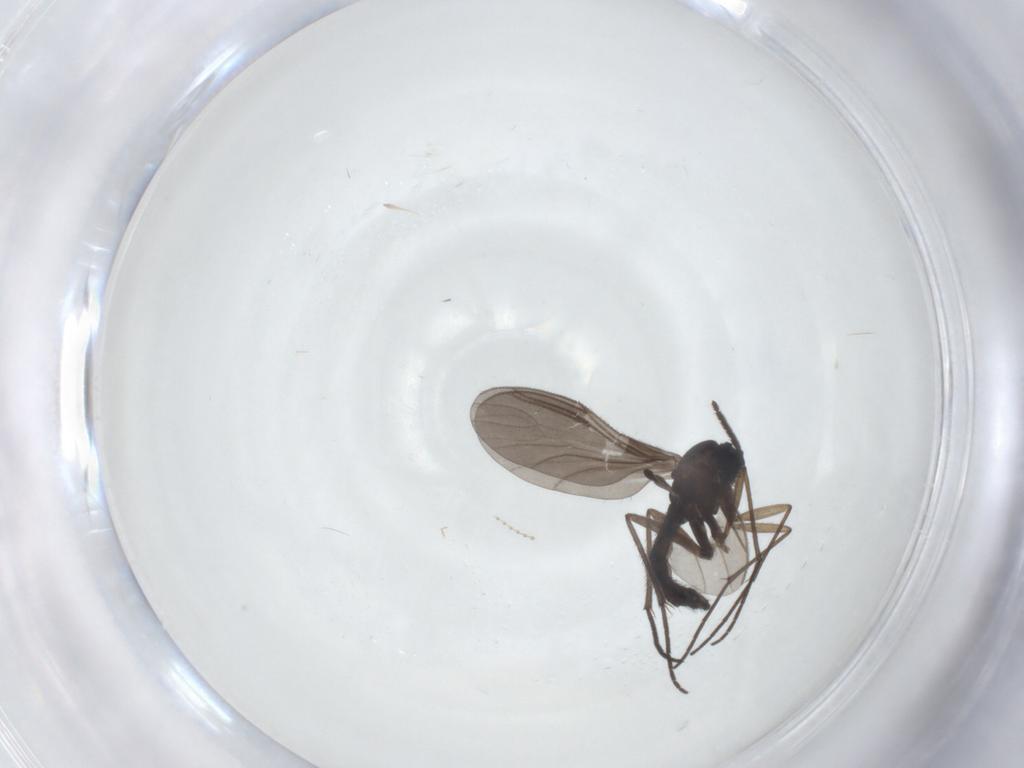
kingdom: Animalia
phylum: Arthropoda
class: Insecta
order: Diptera
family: Sciaridae
